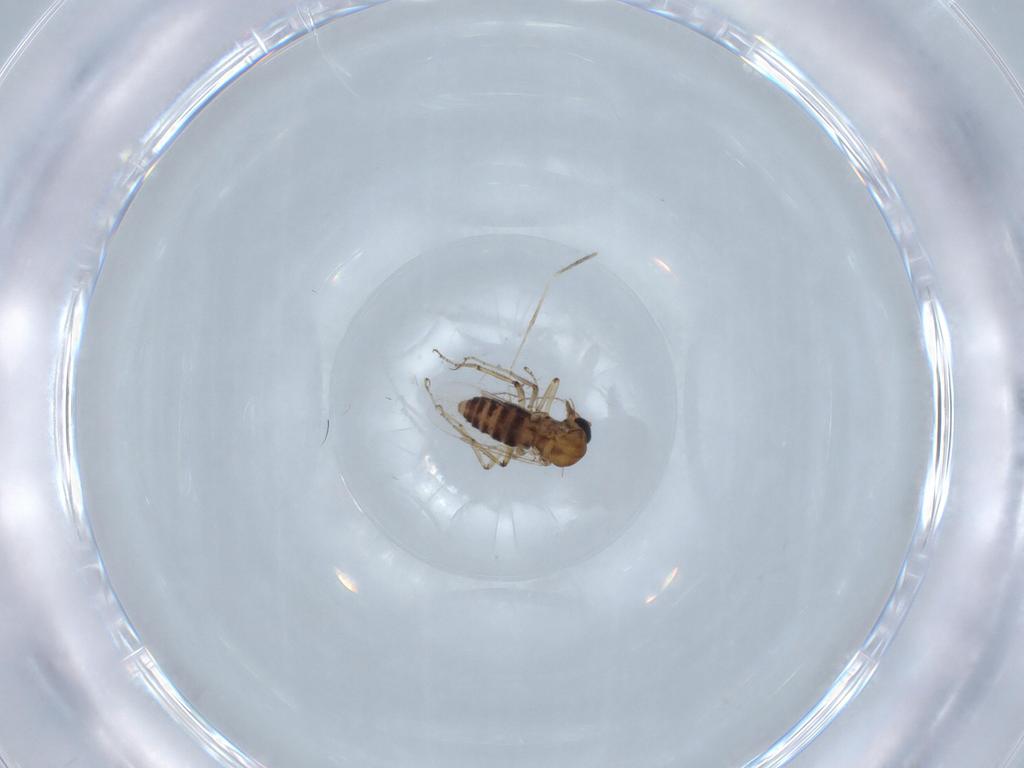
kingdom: Animalia
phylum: Arthropoda
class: Insecta
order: Diptera
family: Ceratopogonidae
